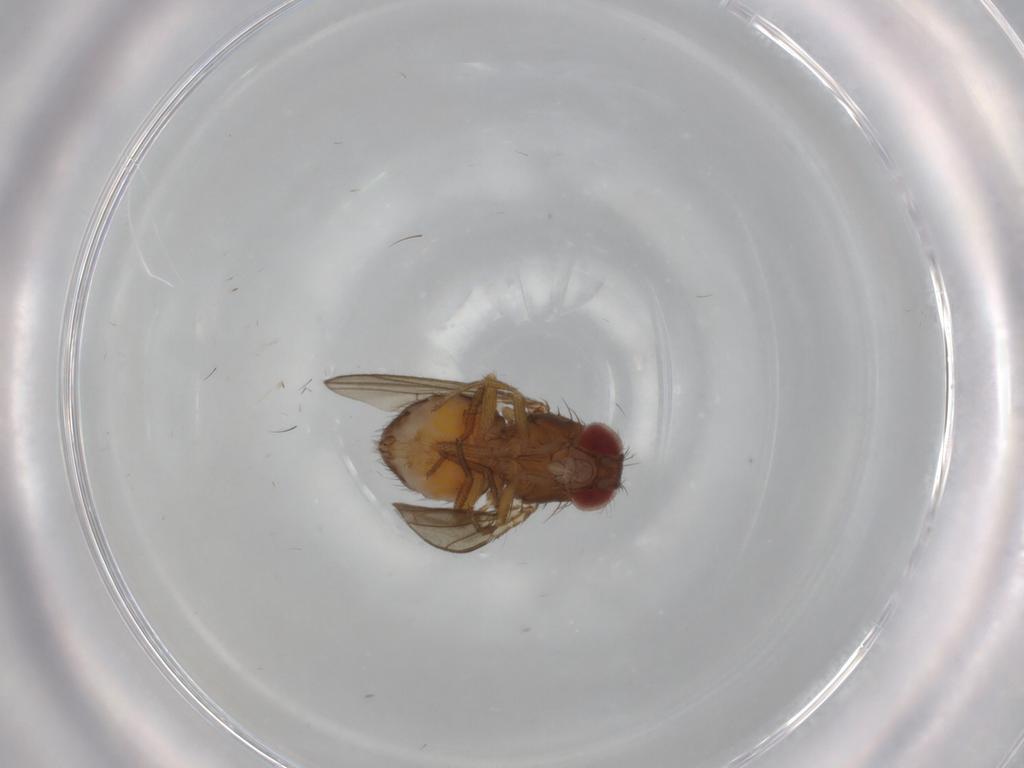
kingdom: Animalia
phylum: Arthropoda
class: Insecta
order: Diptera
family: Drosophilidae
